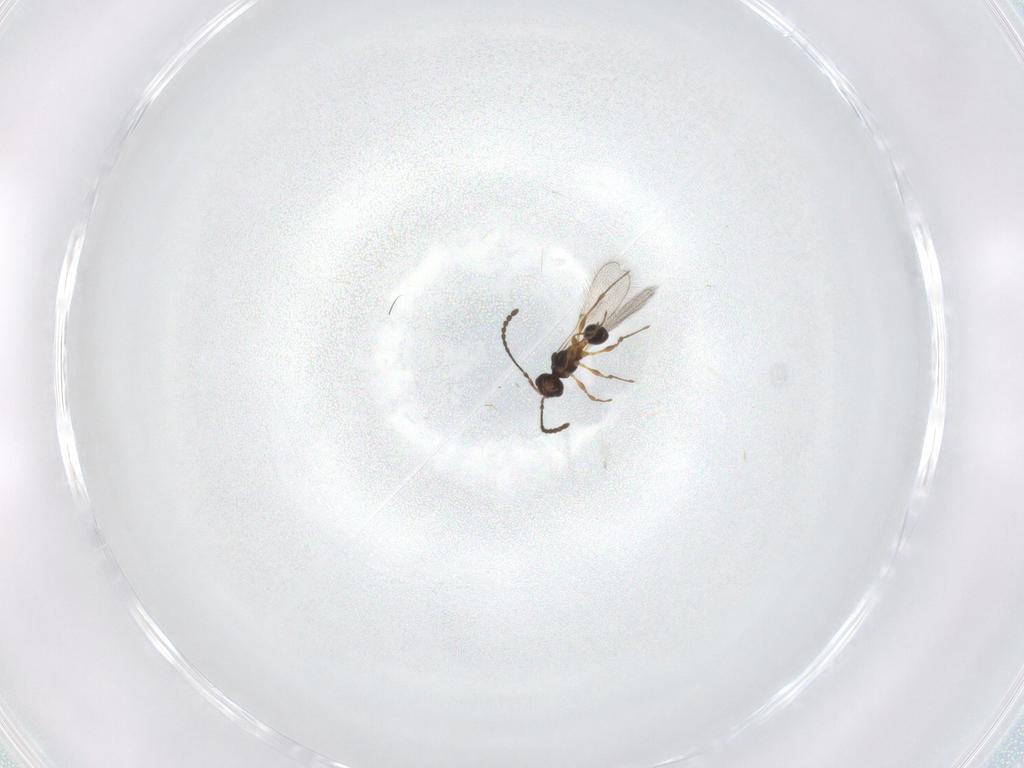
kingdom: Animalia
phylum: Arthropoda
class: Insecta
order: Hymenoptera
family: Diapriidae
